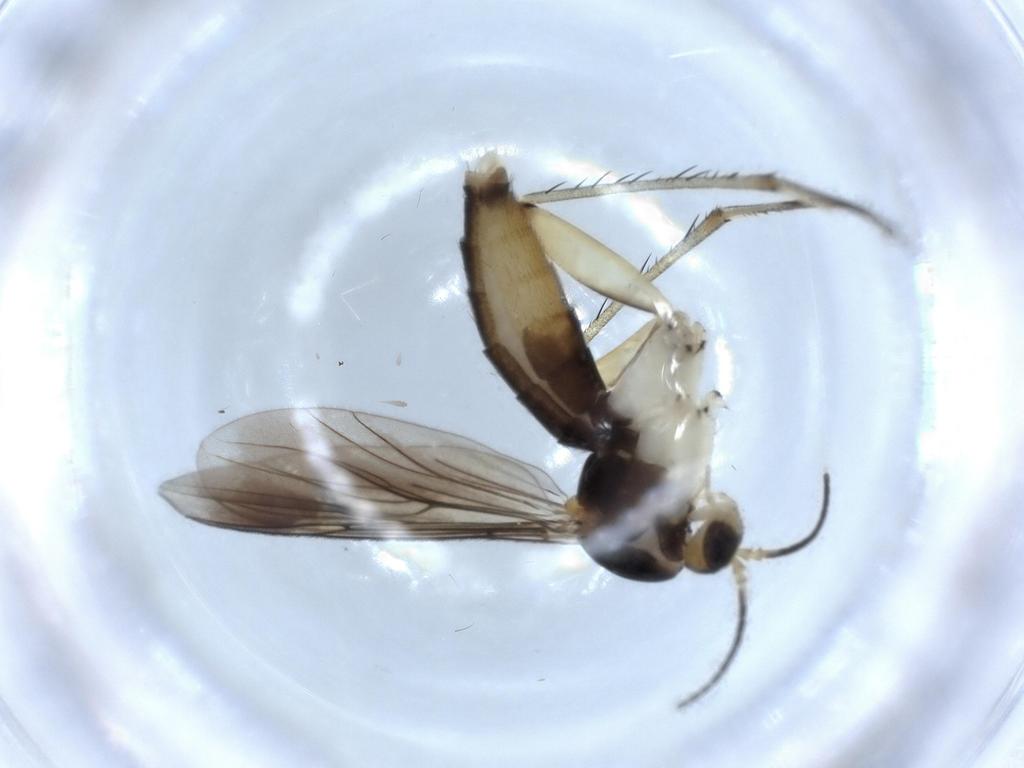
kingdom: Animalia
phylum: Arthropoda
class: Insecta
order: Diptera
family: Mycetophilidae
